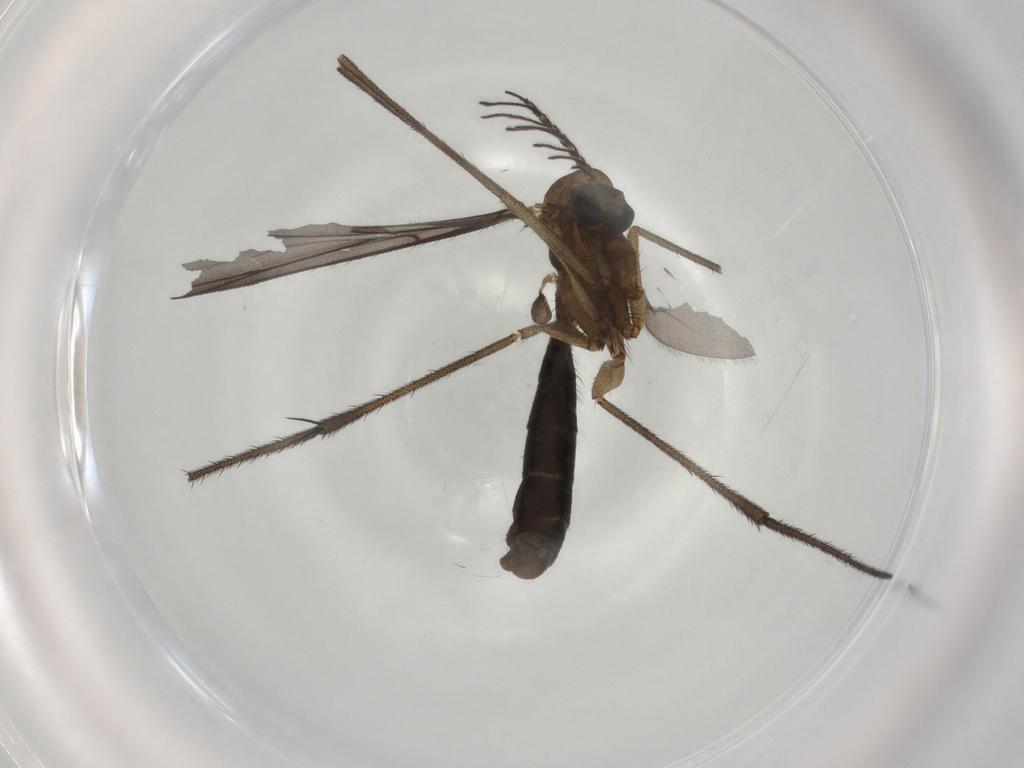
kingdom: Animalia
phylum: Arthropoda
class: Insecta
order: Diptera
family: Ditomyiidae
